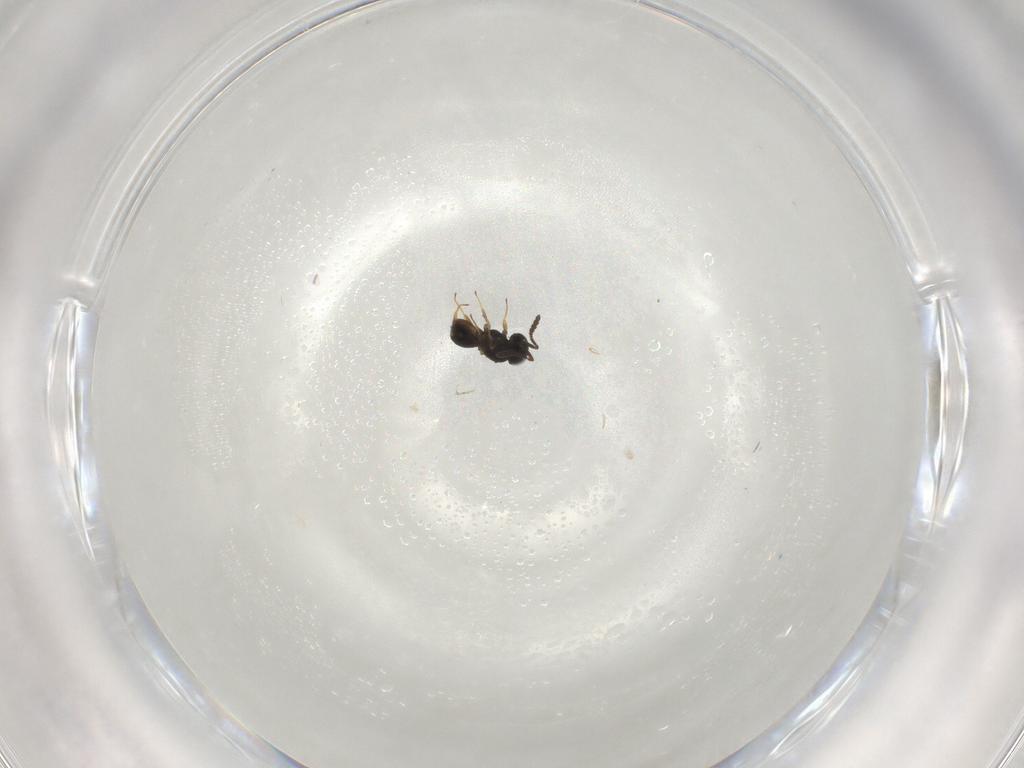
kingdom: Animalia
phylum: Arthropoda
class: Insecta
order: Hymenoptera
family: Scelionidae
